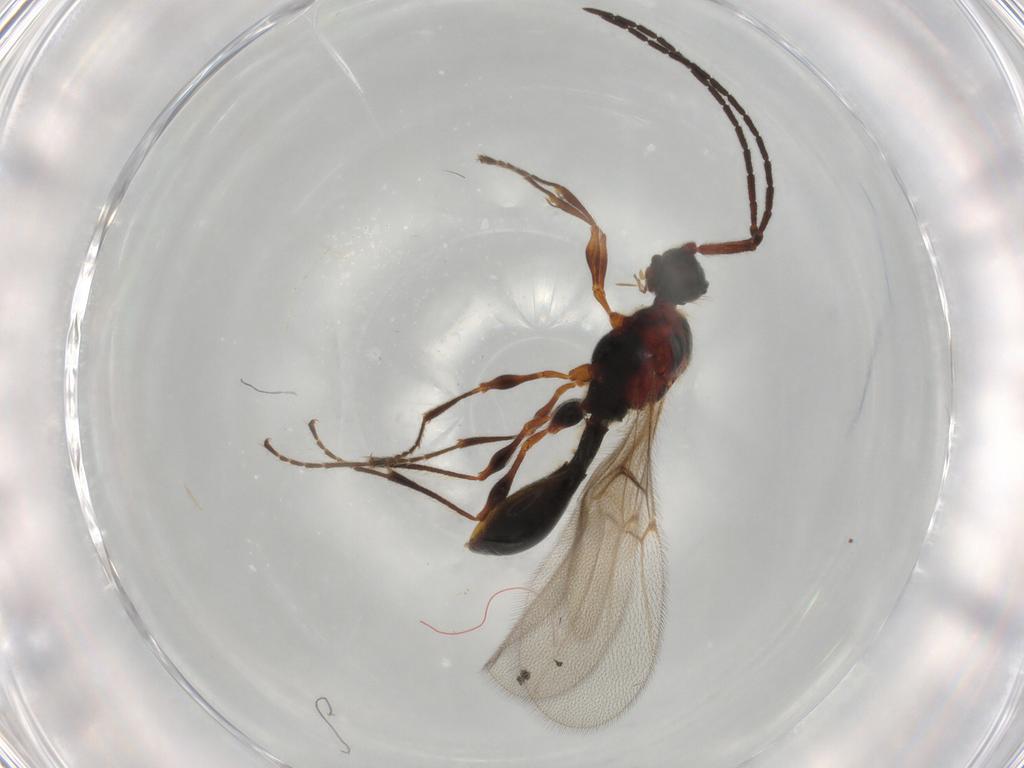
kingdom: Animalia
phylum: Arthropoda
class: Insecta
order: Hymenoptera
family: Diapriidae
